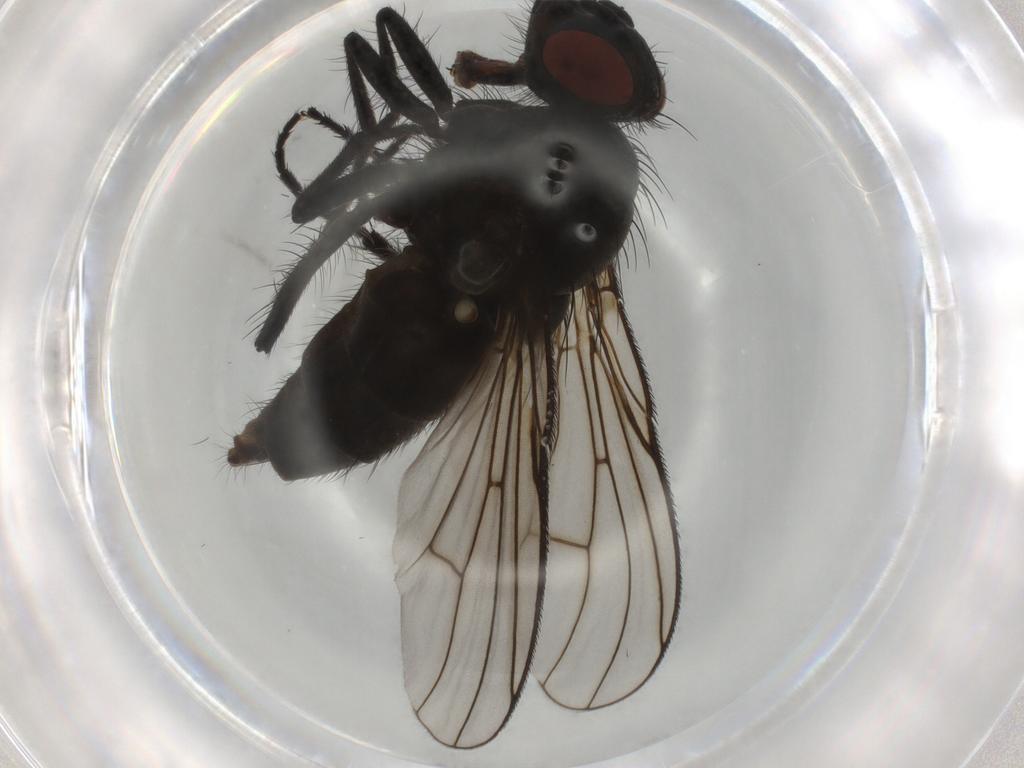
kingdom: Animalia
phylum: Arthropoda
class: Insecta
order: Diptera
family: Muscidae
